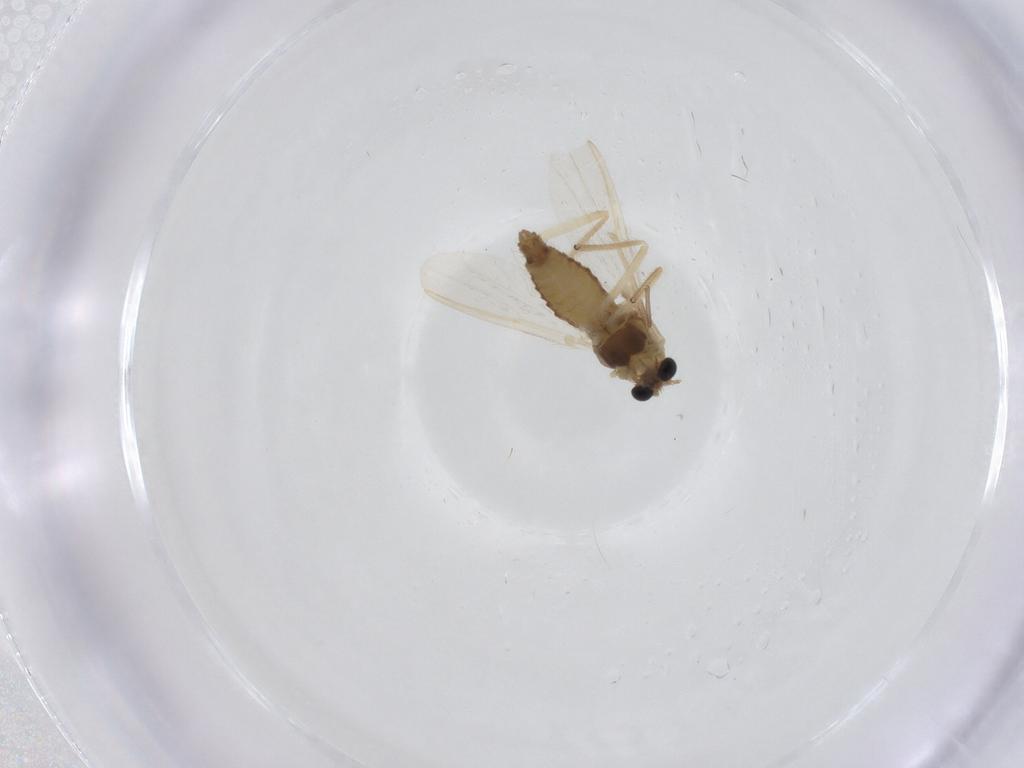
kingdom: Animalia
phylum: Arthropoda
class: Insecta
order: Diptera
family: Chironomidae
